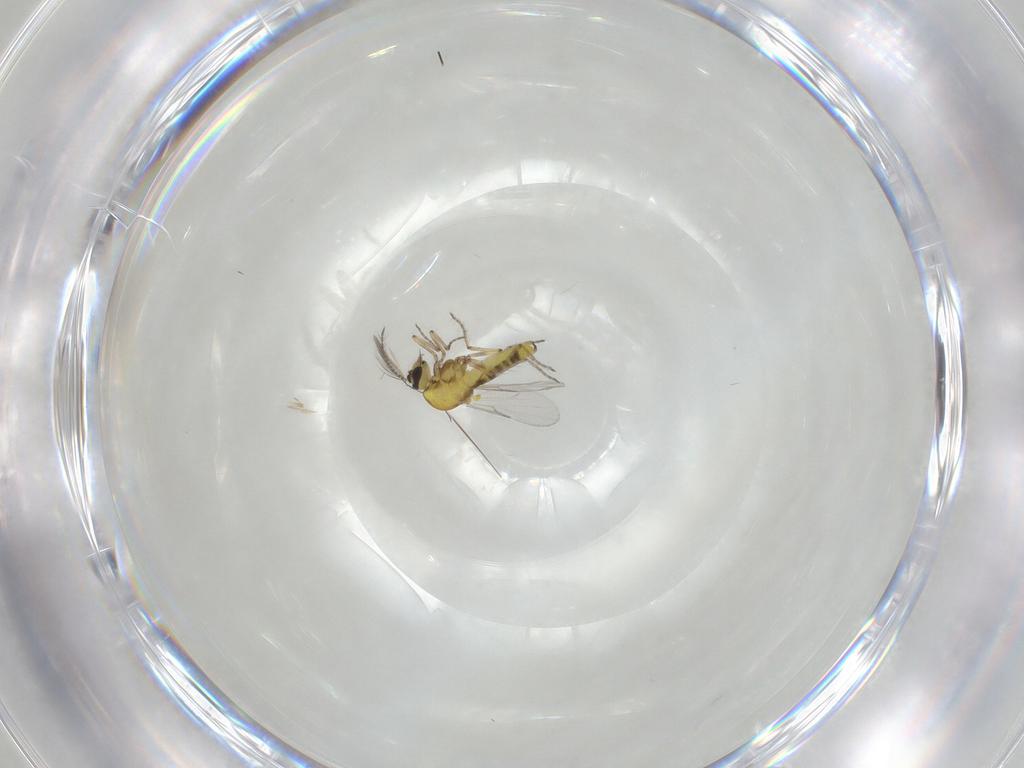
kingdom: Animalia
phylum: Arthropoda
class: Insecta
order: Diptera
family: Ceratopogonidae
